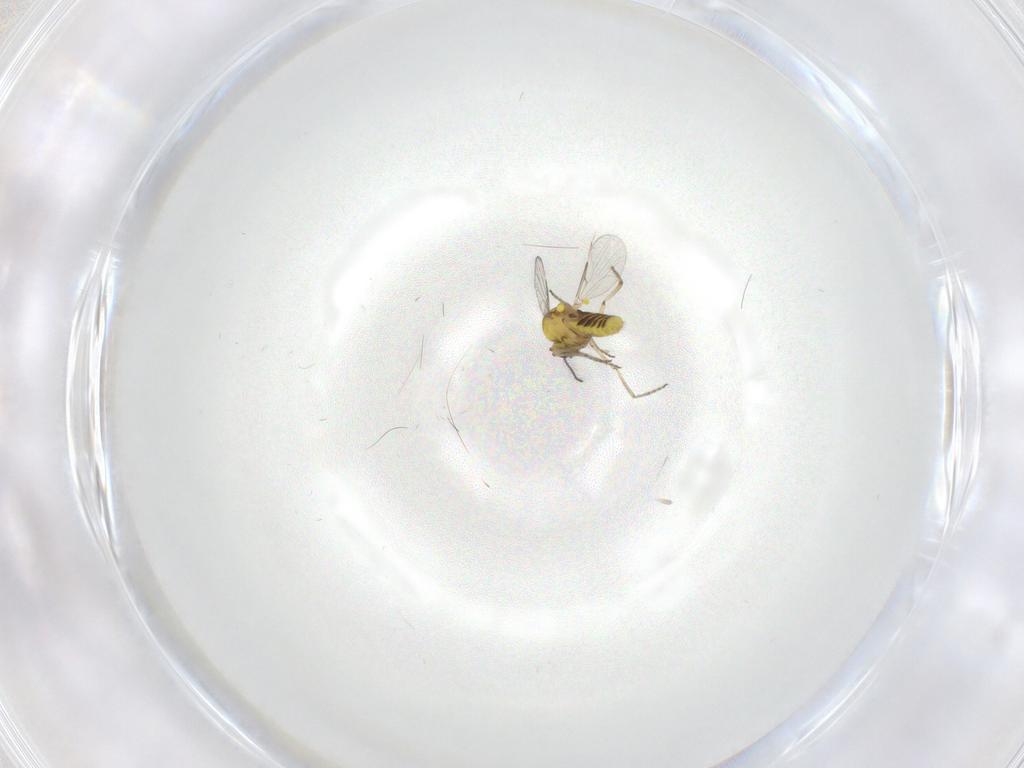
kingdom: Animalia
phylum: Arthropoda
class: Insecta
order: Diptera
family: Ceratopogonidae
